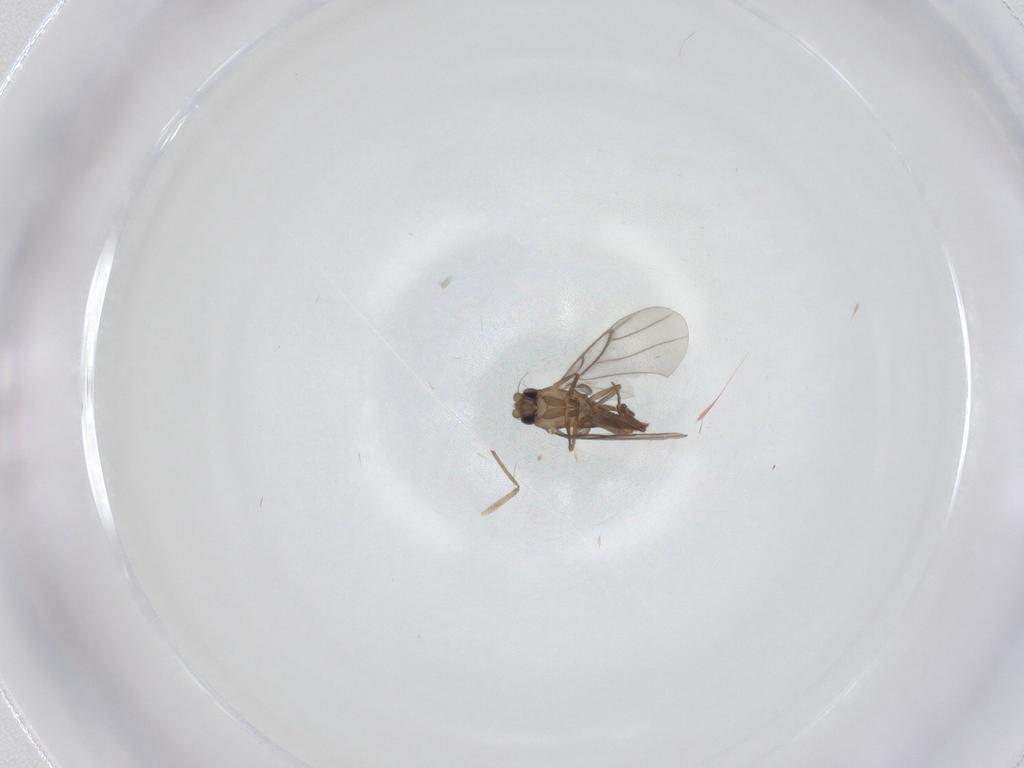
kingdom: Animalia
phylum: Arthropoda
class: Insecta
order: Diptera
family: Chironomidae
